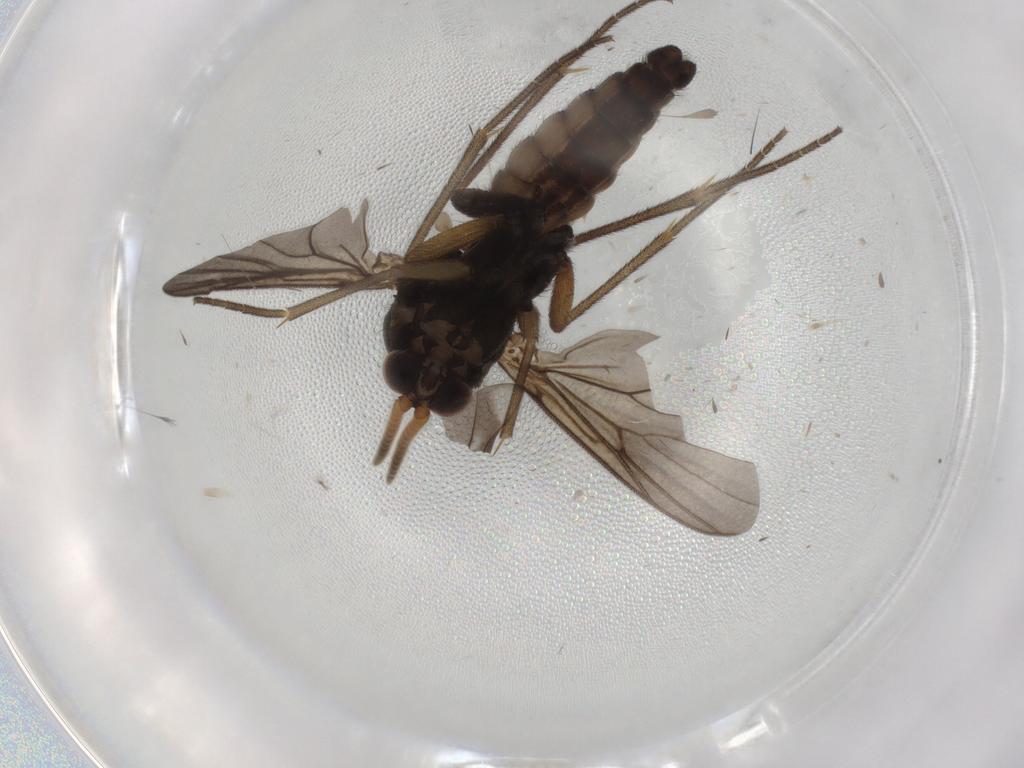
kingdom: Animalia
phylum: Arthropoda
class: Insecta
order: Diptera
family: Mycetophilidae
